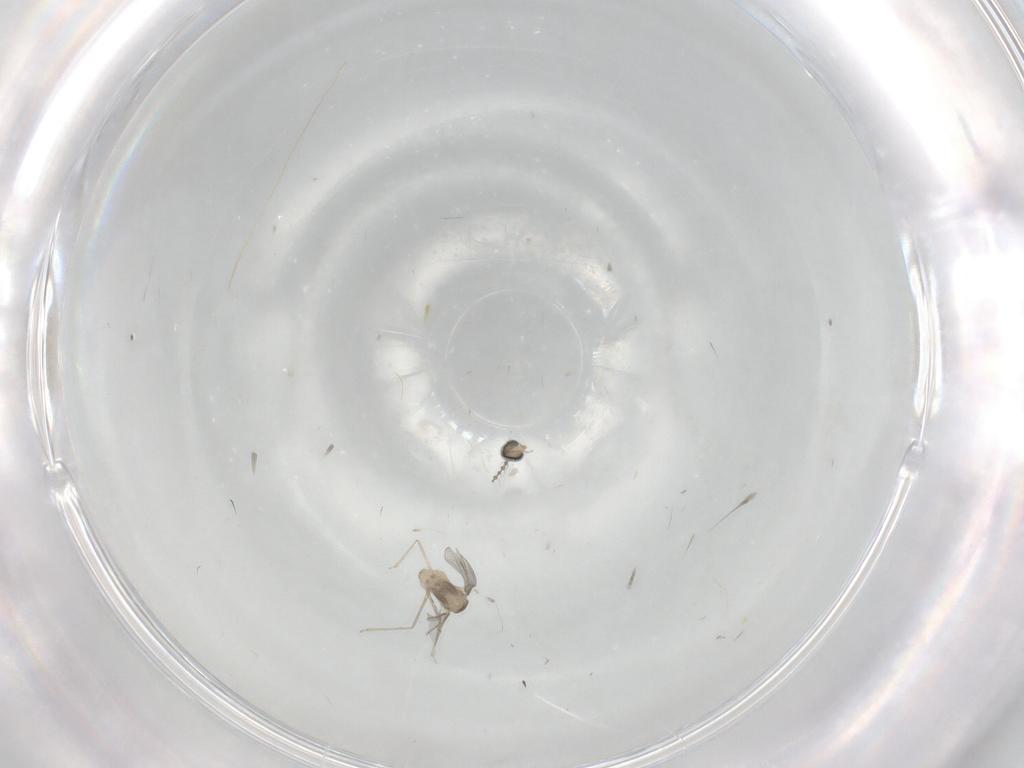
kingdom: Animalia
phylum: Arthropoda
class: Insecta
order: Diptera
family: Cecidomyiidae
